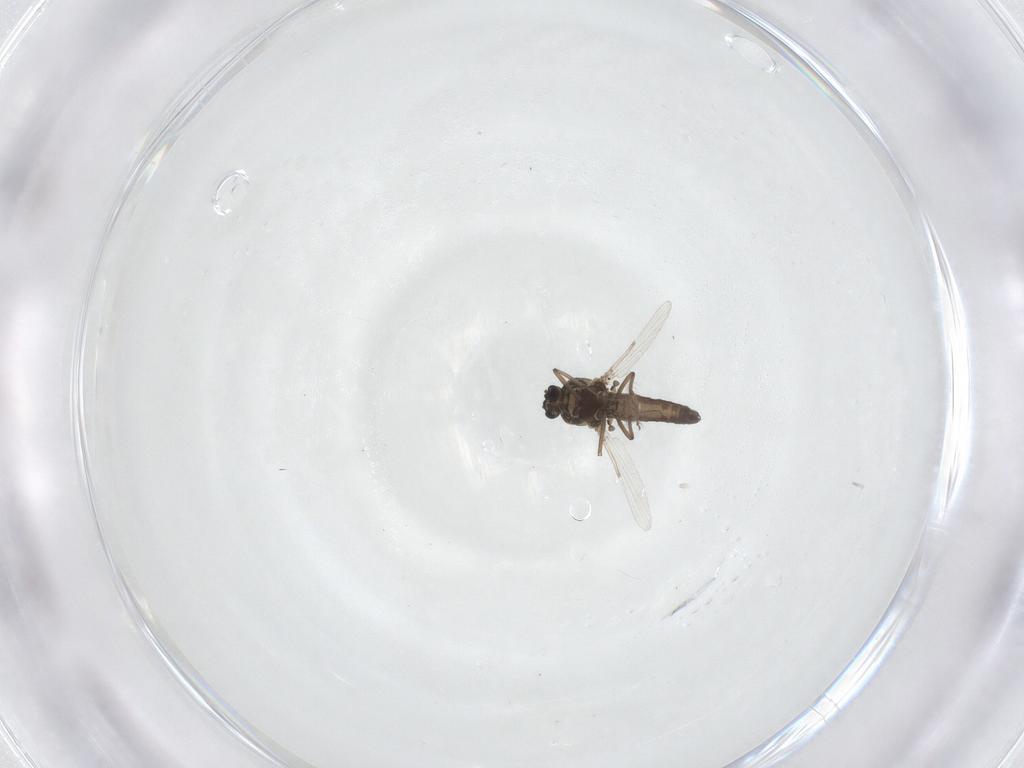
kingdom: Animalia
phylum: Arthropoda
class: Insecta
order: Diptera
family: Ceratopogonidae
